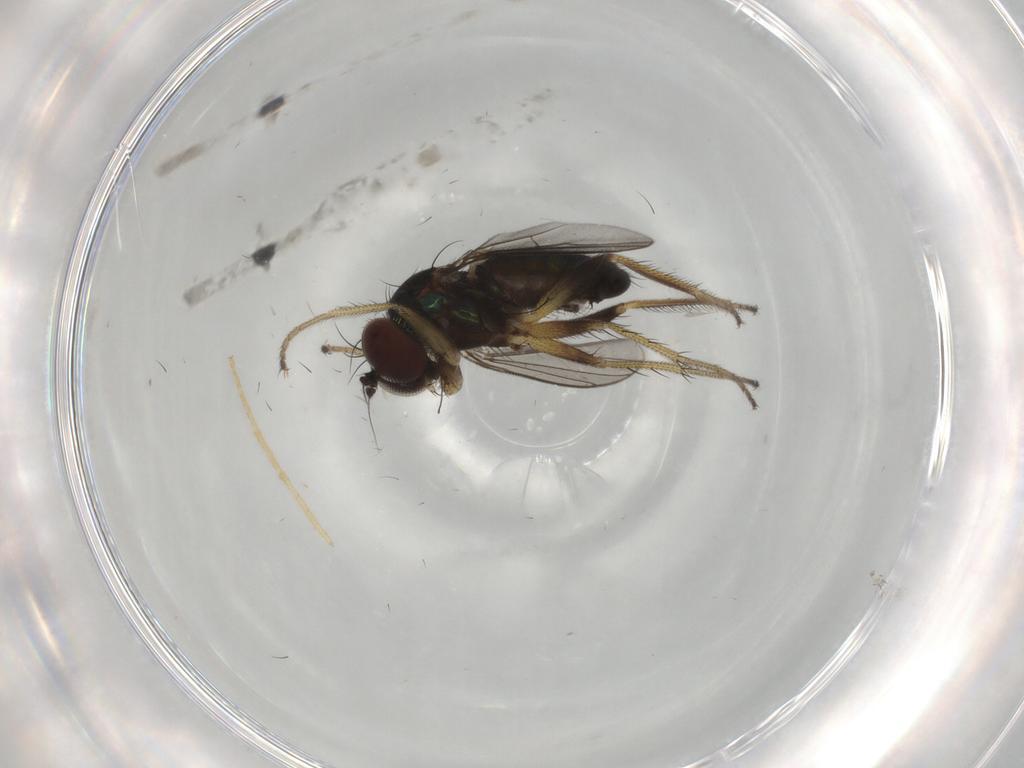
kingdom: Animalia
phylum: Arthropoda
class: Insecta
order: Diptera
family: Dolichopodidae
